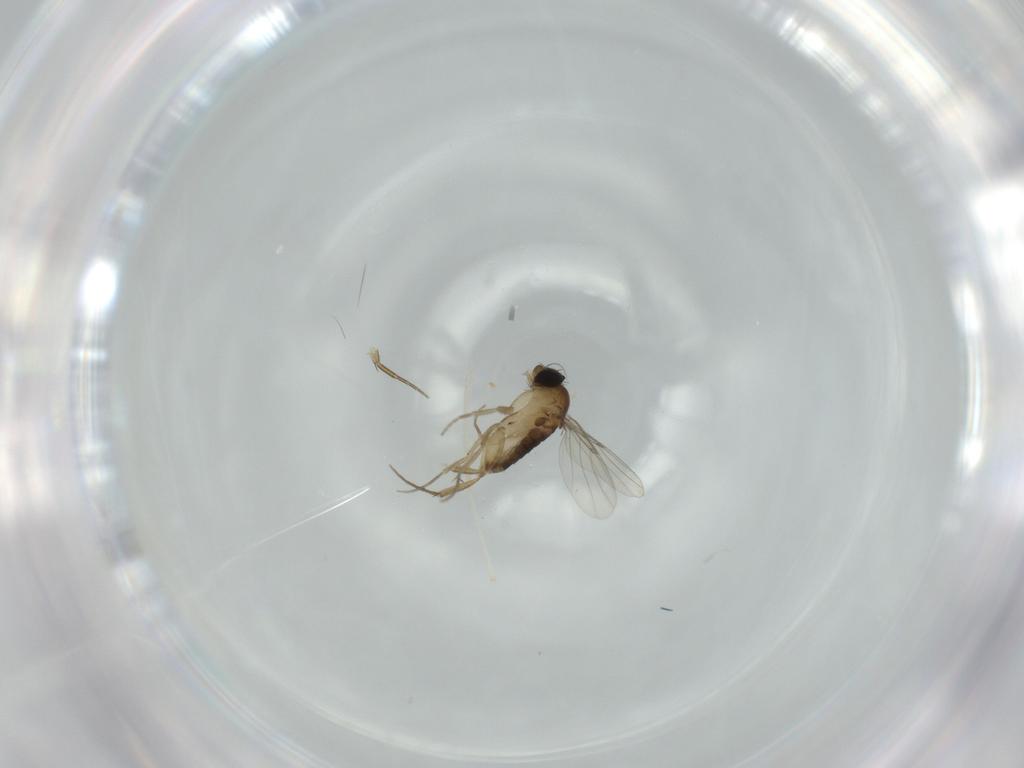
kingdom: Animalia
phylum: Arthropoda
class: Insecta
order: Diptera
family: Phoridae
